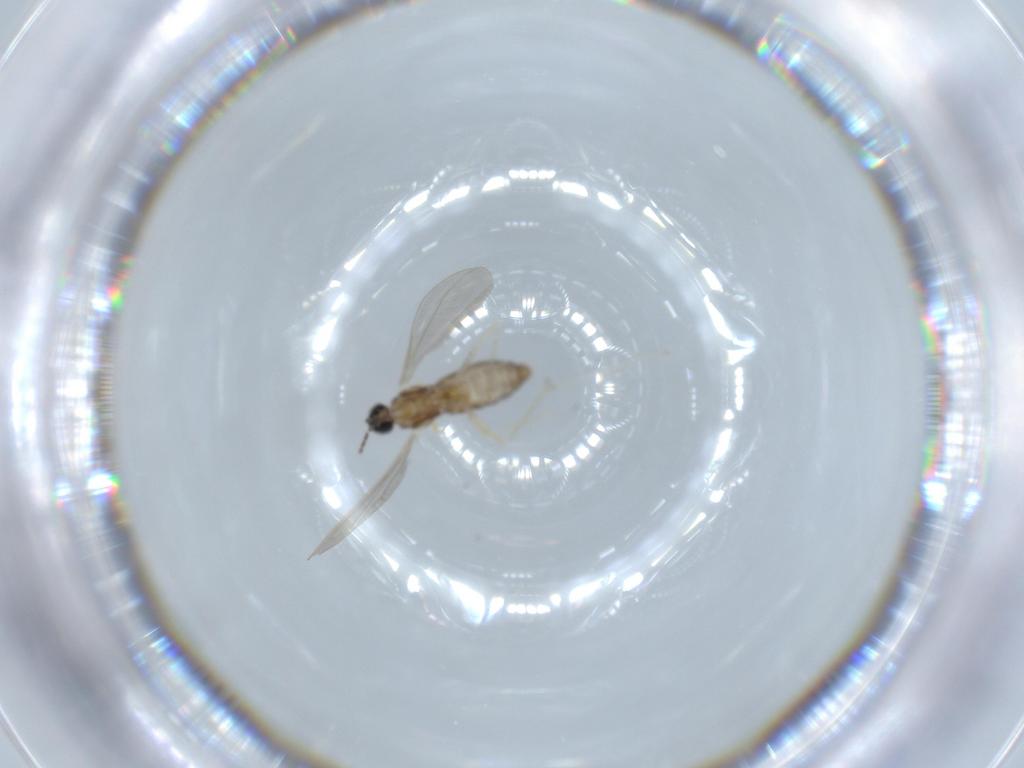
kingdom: Animalia
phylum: Arthropoda
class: Insecta
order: Diptera
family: Cecidomyiidae
